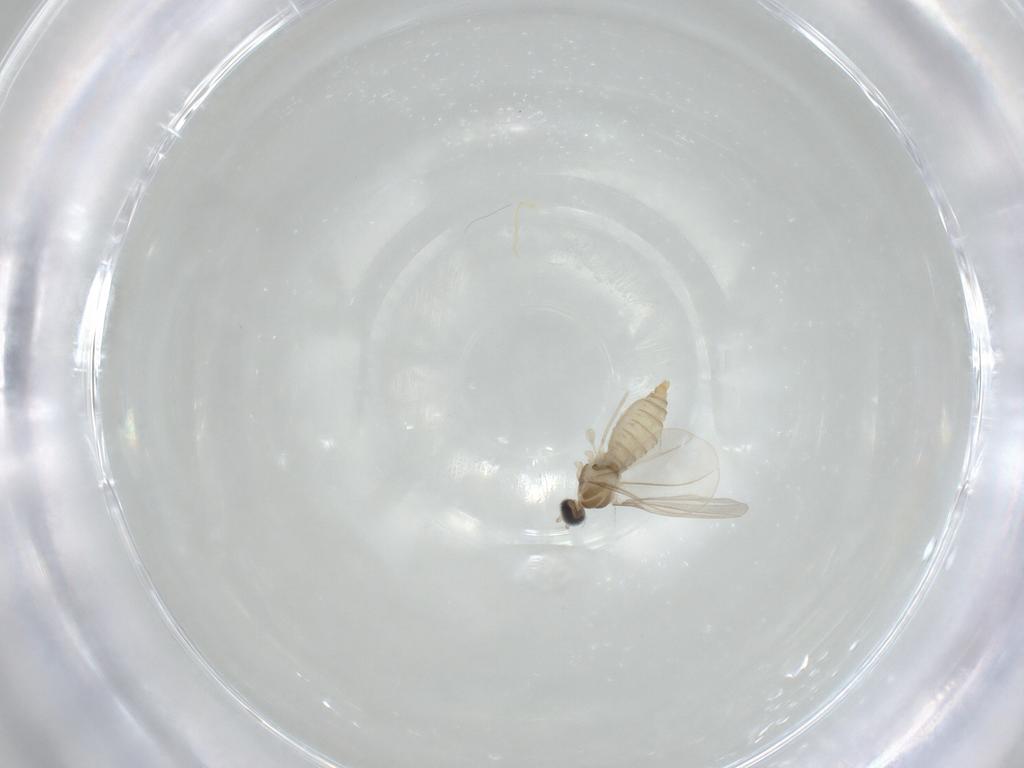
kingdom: Animalia
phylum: Arthropoda
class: Insecta
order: Diptera
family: Cecidomyiidae
